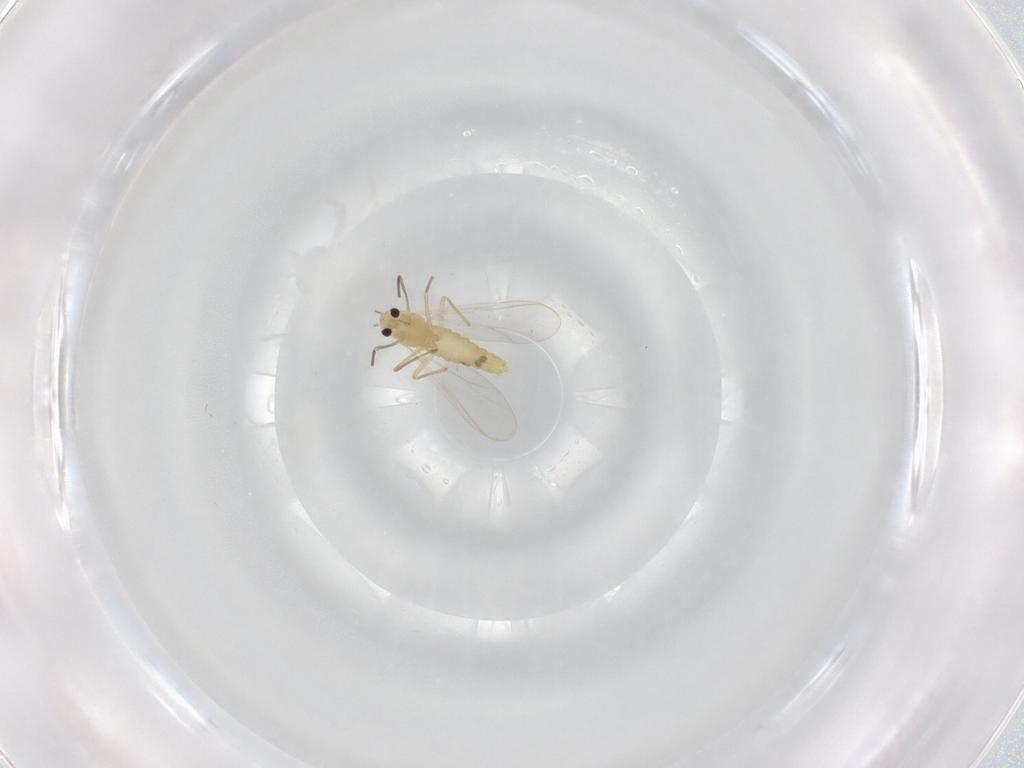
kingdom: Animalia
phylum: Arthropoda
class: Insecta
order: Diptera
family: Chironomidae
